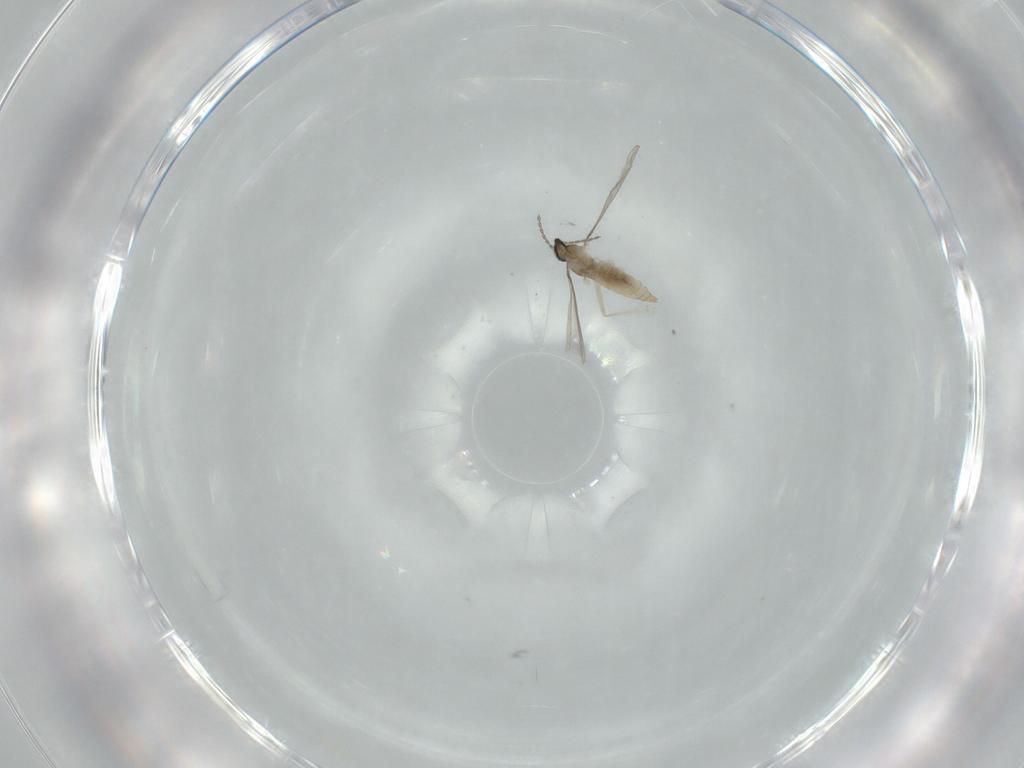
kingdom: Animalia
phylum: Arthropoda
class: Insecta
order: Diptera
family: Cecidomyiidae
